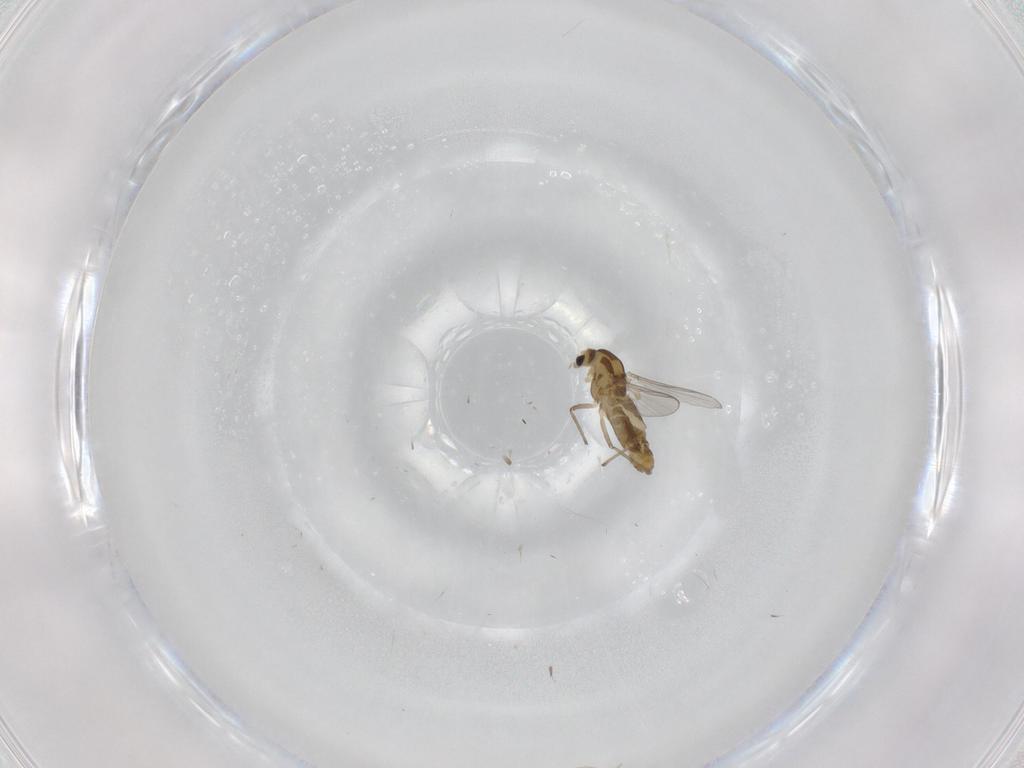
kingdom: Animalia
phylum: Arthropoda
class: Insecta
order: Diptera
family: Chironomidae
